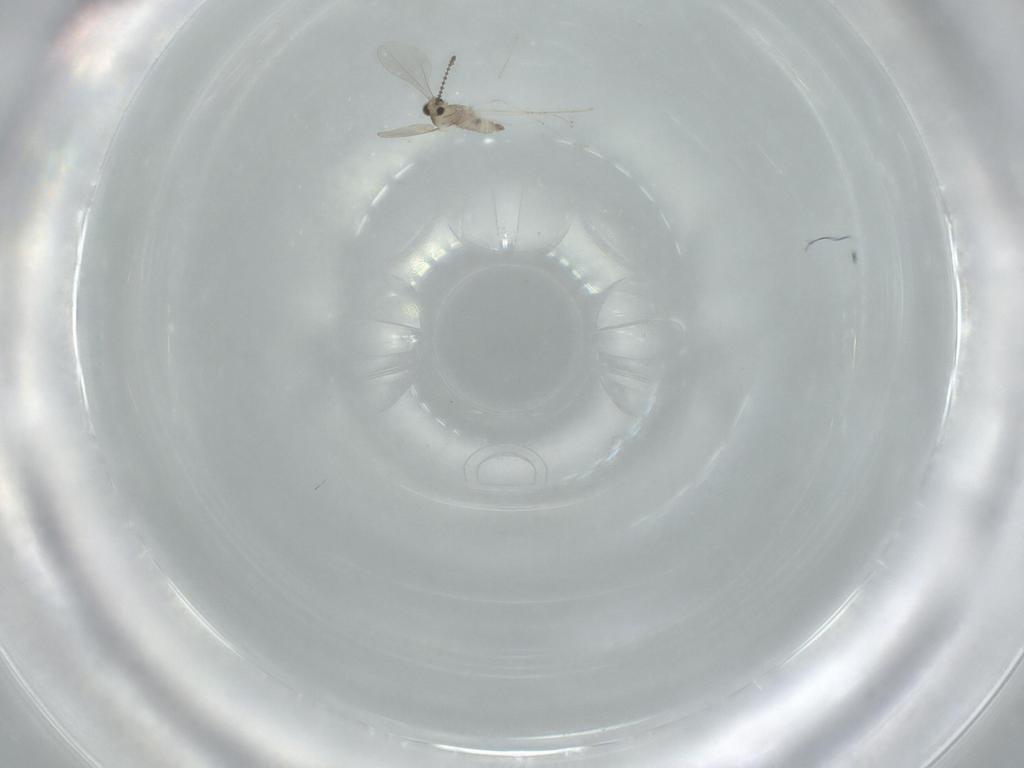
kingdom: Animalia
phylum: Arthropoda
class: Insecta
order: Diptera
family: Cecidomyiidae
